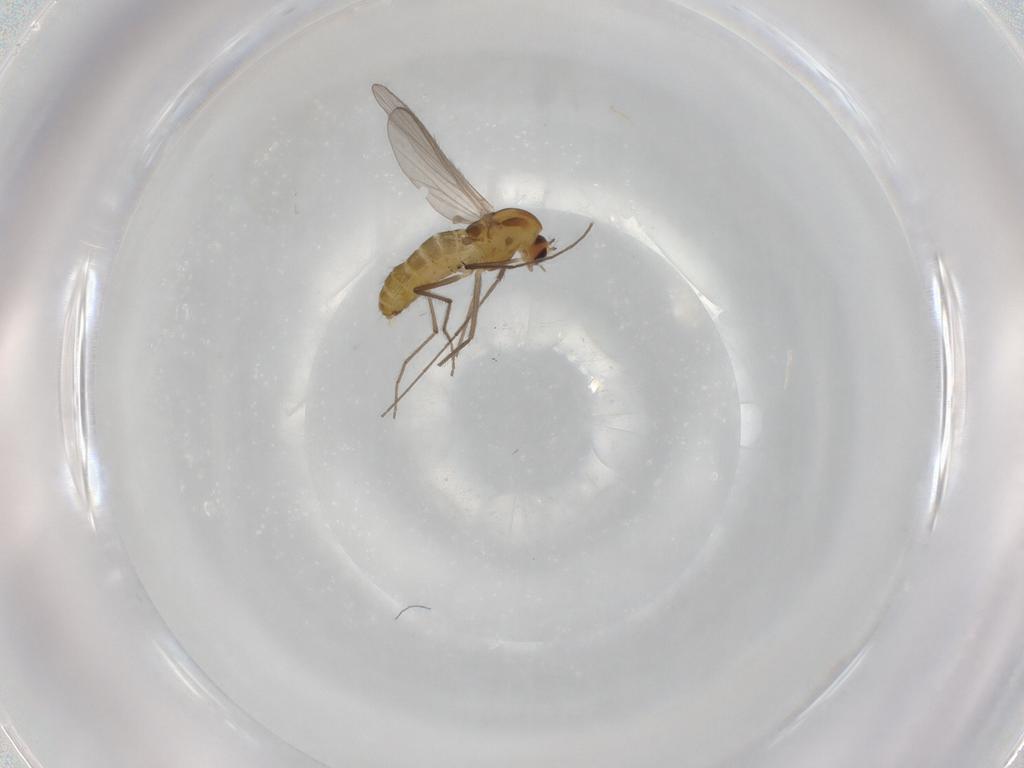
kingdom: Animalia
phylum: Arthropoda
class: Insecta
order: Diptera
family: Chironomidae
